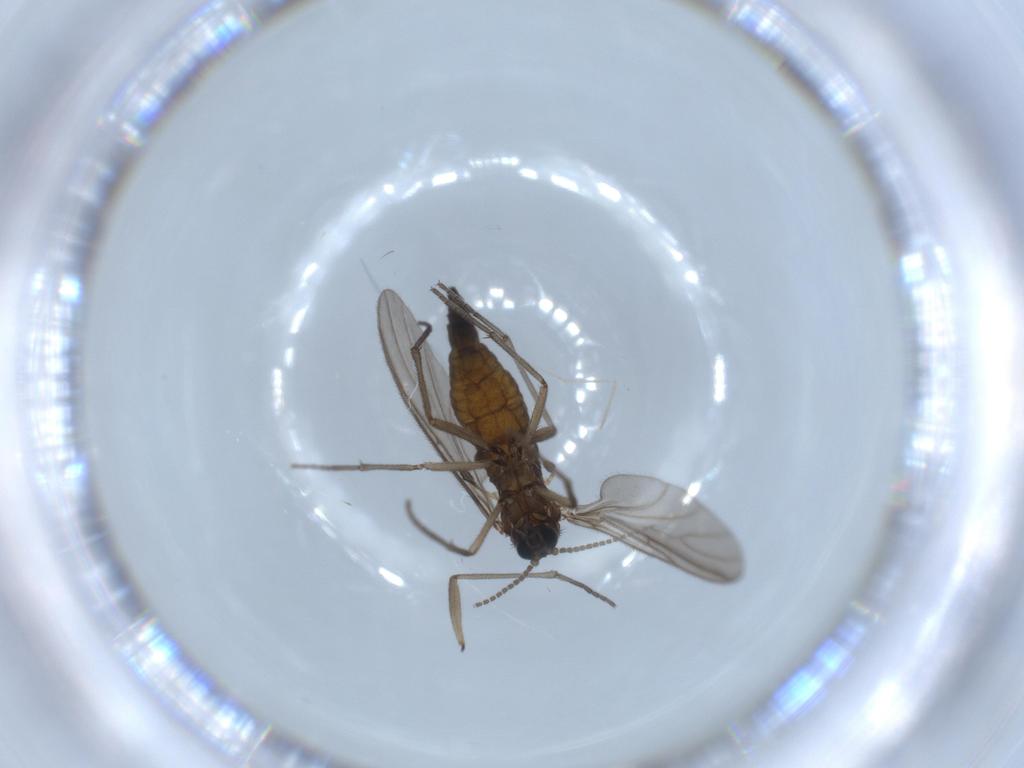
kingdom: Animalia
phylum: Arthropoda
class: Insecta
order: Diptera
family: Sciaridae
